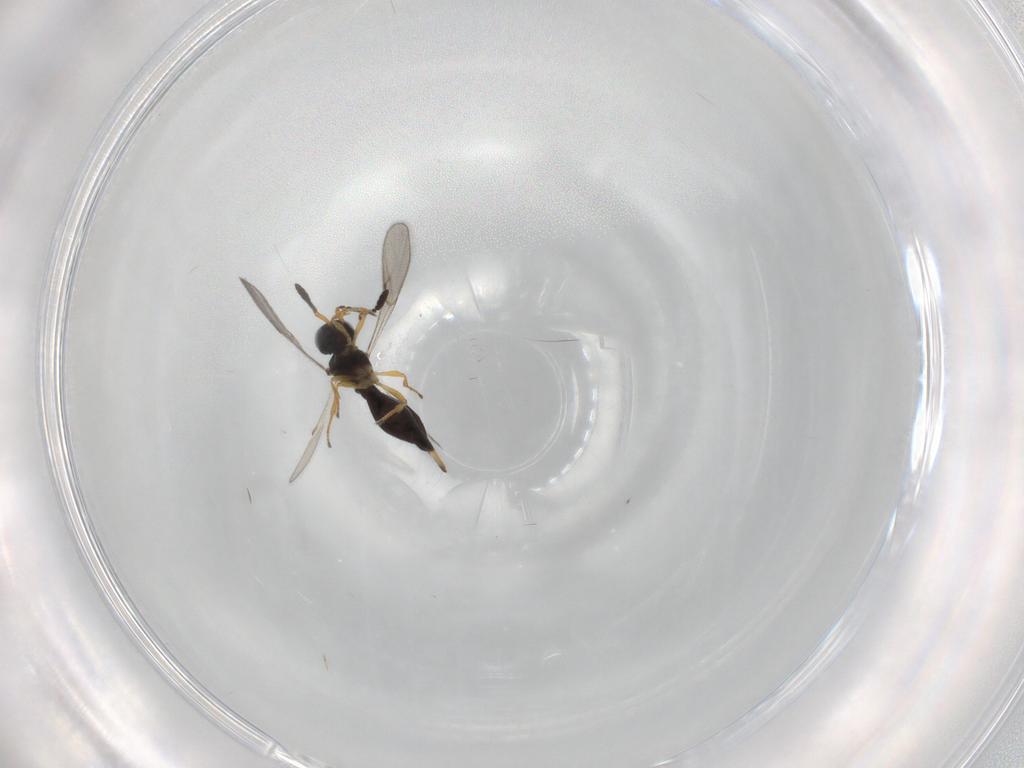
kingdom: Animalia
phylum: Arthropoda
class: Insecta
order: Hymenoptera
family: Scelionidae
